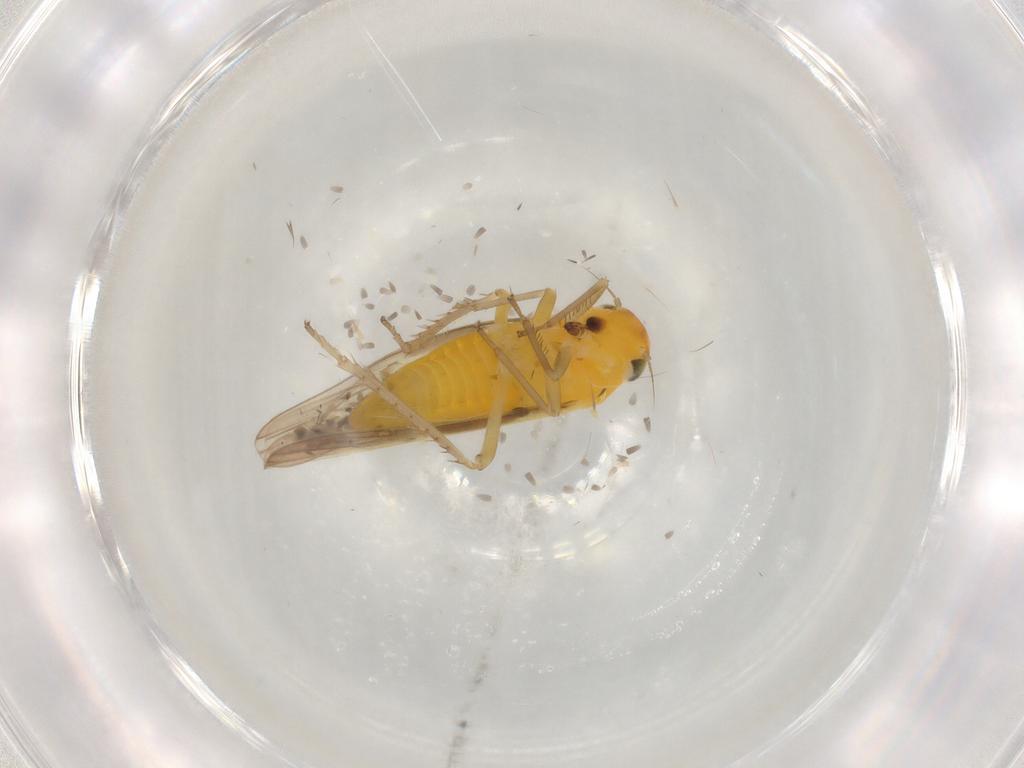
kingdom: Animalia
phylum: Arthropoda
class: Insecta
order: Hemiptera
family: Cicadellidae
